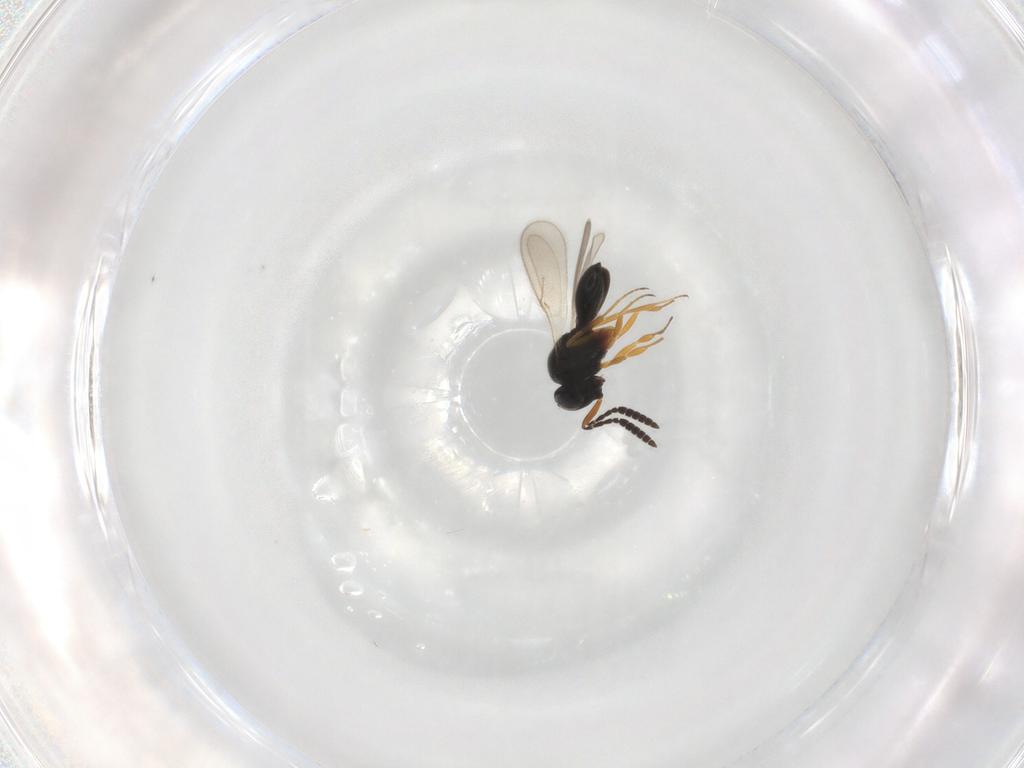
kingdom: Animalia
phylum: Arthropoda
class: Insecta
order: Hymenoptera
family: Scelionidae
